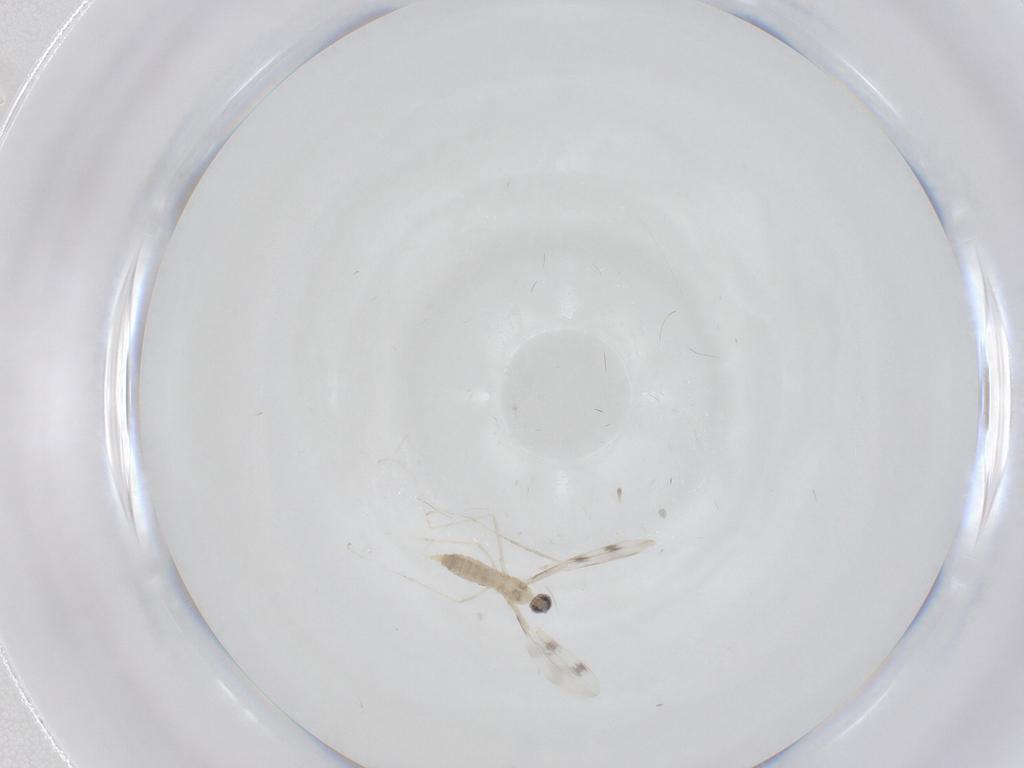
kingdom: Animalia
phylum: Arthropoda
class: Insecta
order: Diptera
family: Cecidomyiidae
